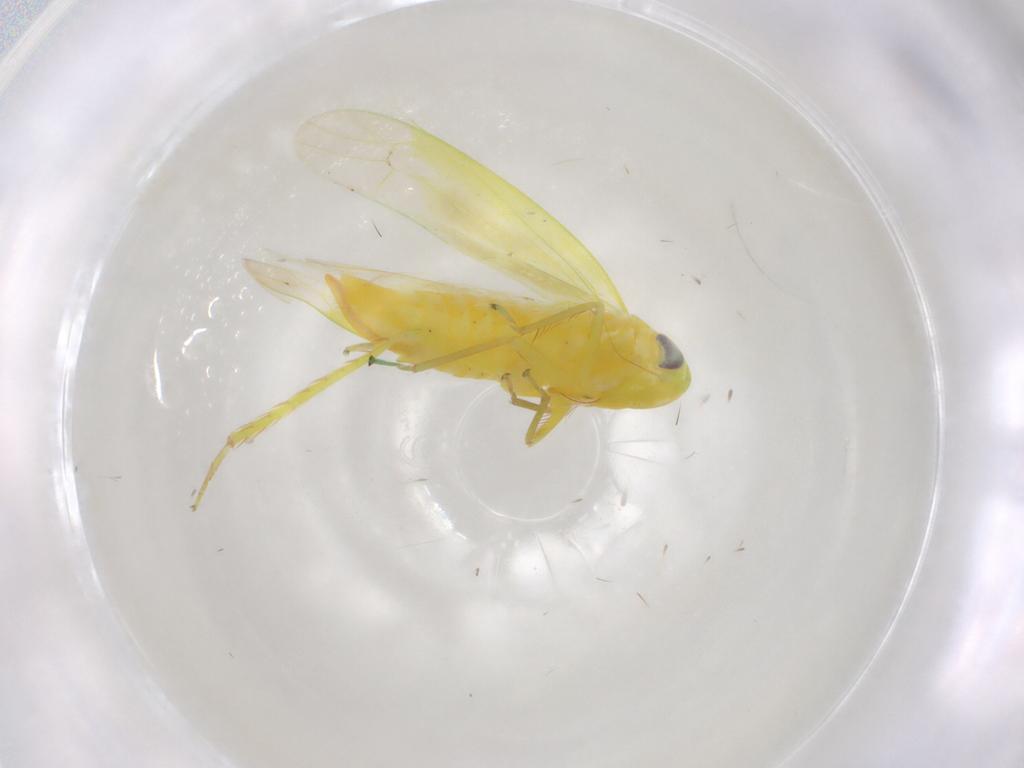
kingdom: Animalia
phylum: Arthropoda
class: Insecta
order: Hemiptera
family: Cicadellidae
